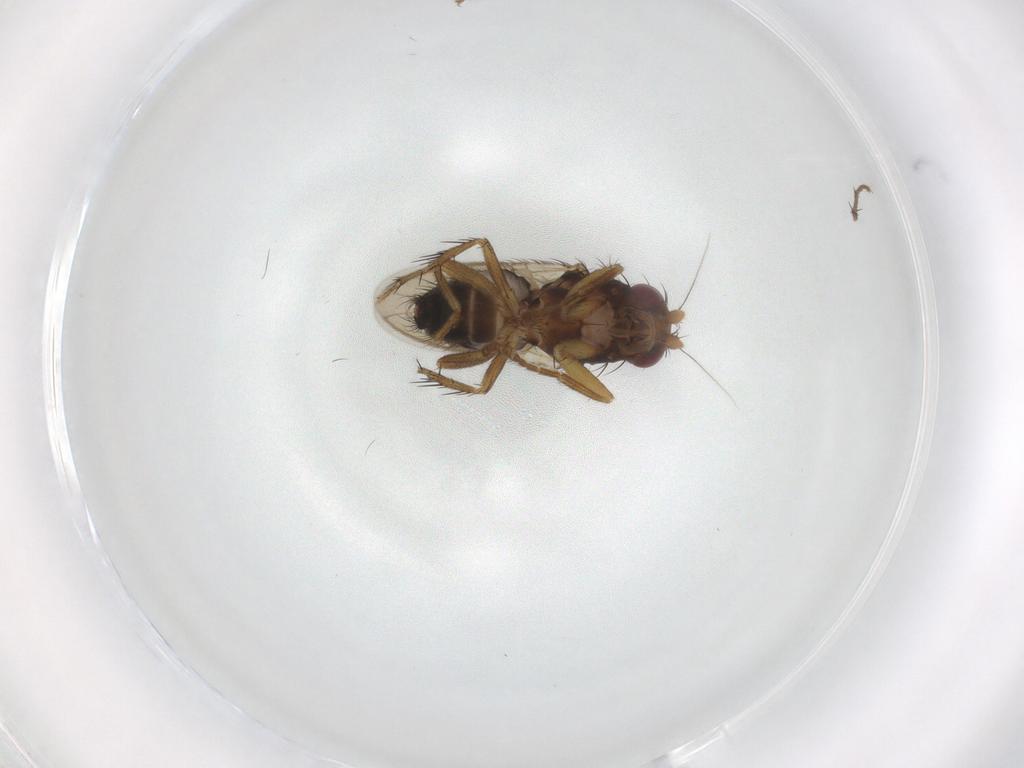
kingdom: Animalia
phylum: Arthropoda
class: Insecta
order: Diptera
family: Sphaeroceridae
